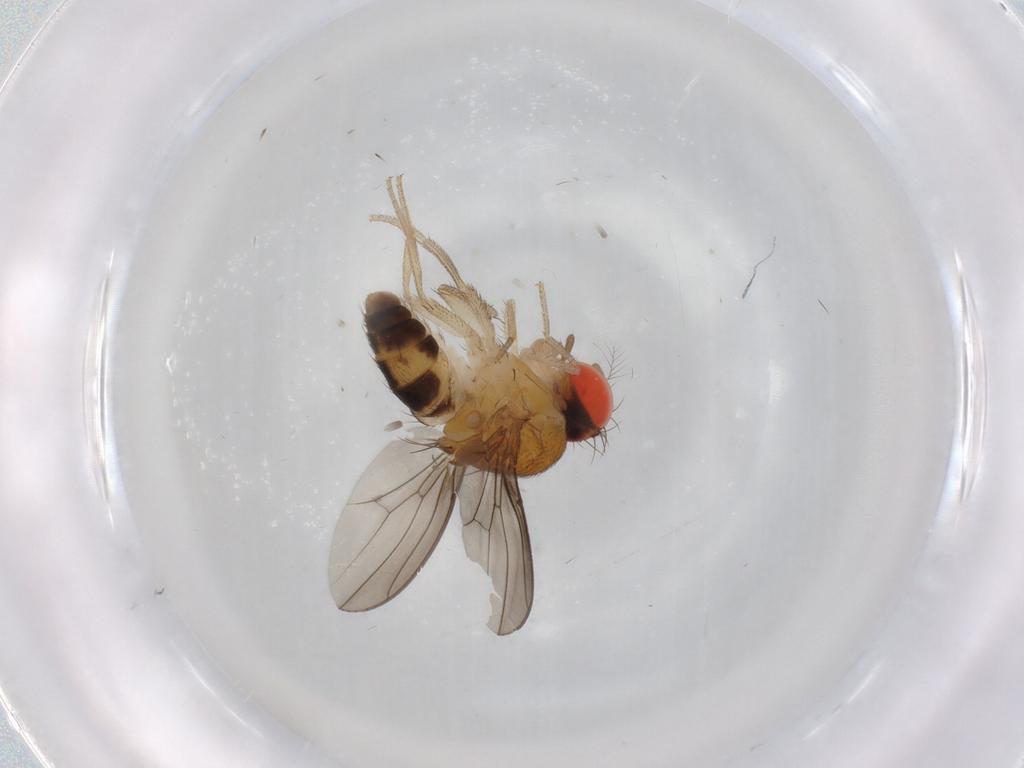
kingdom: Animalia
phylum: Arthropoda
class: Insecta
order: Diptera
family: Drosophilidae
